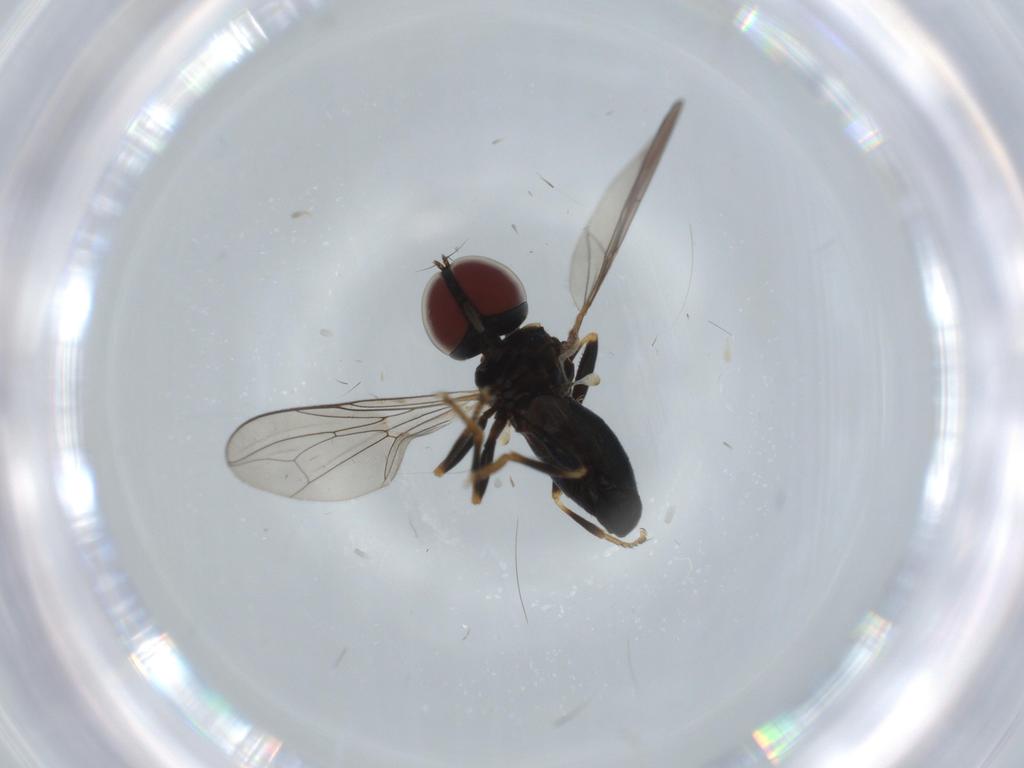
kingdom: Animalia
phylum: Arthropoda
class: Insecta
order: Diptera
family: Pipunculidae
